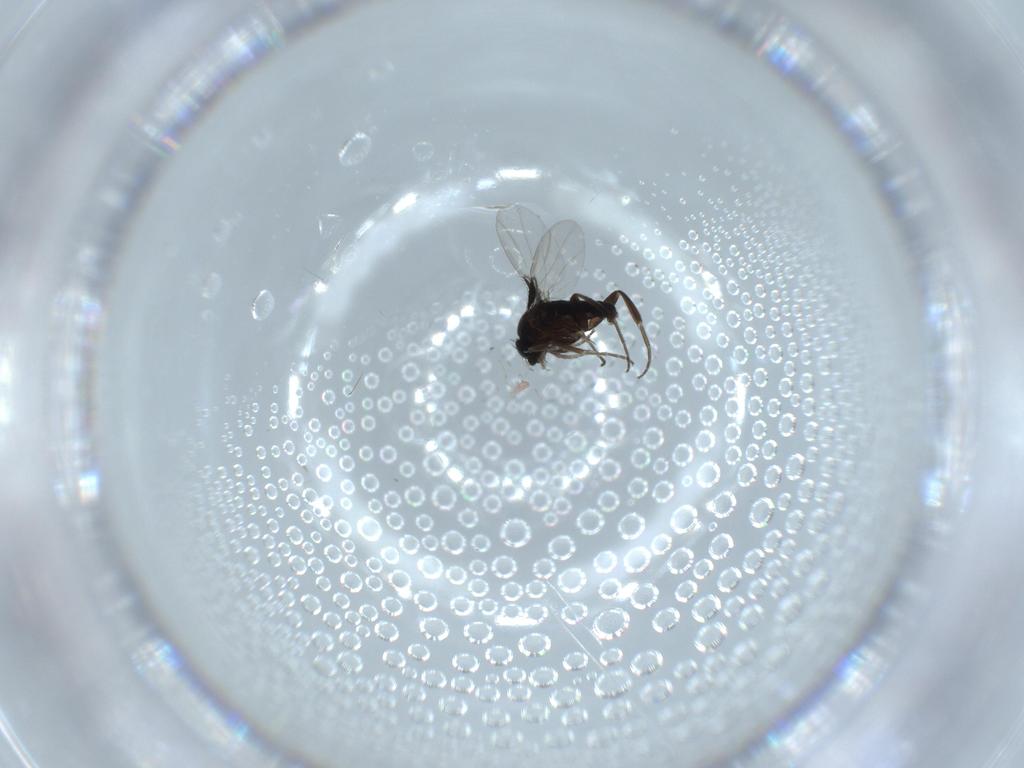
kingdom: Animalia
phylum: Arthropoda
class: Insecta
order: Diptera
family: Phoridae
